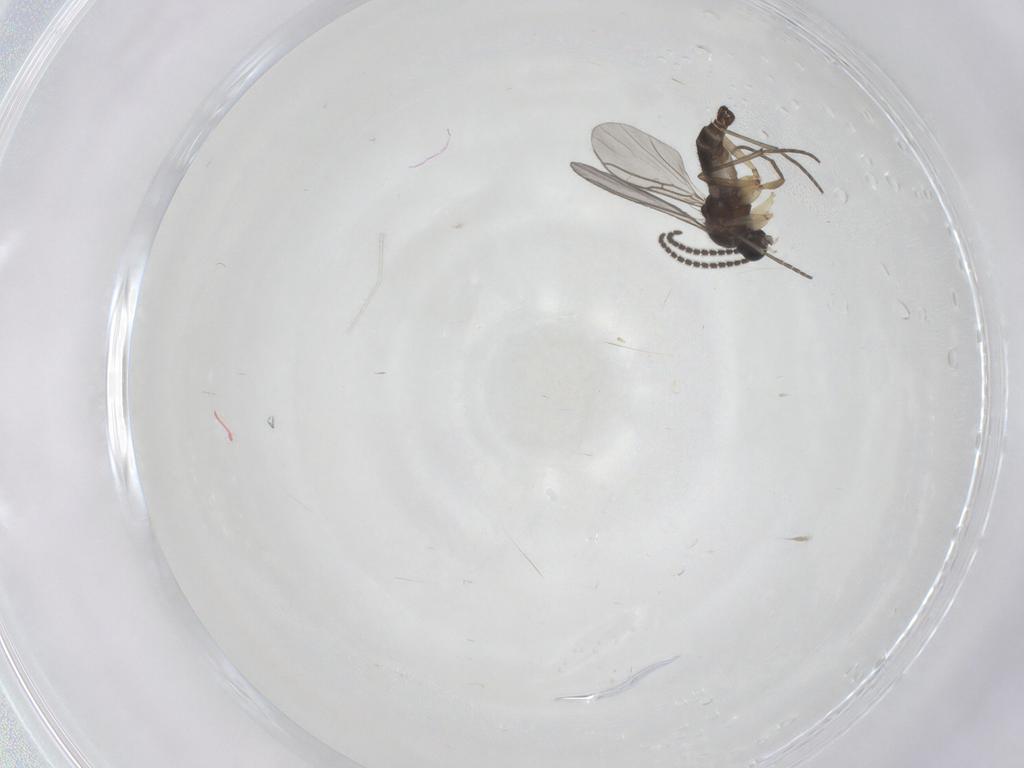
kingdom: Animalia
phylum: Arthropoda
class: Insecta
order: Diptera
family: Sciaridae
